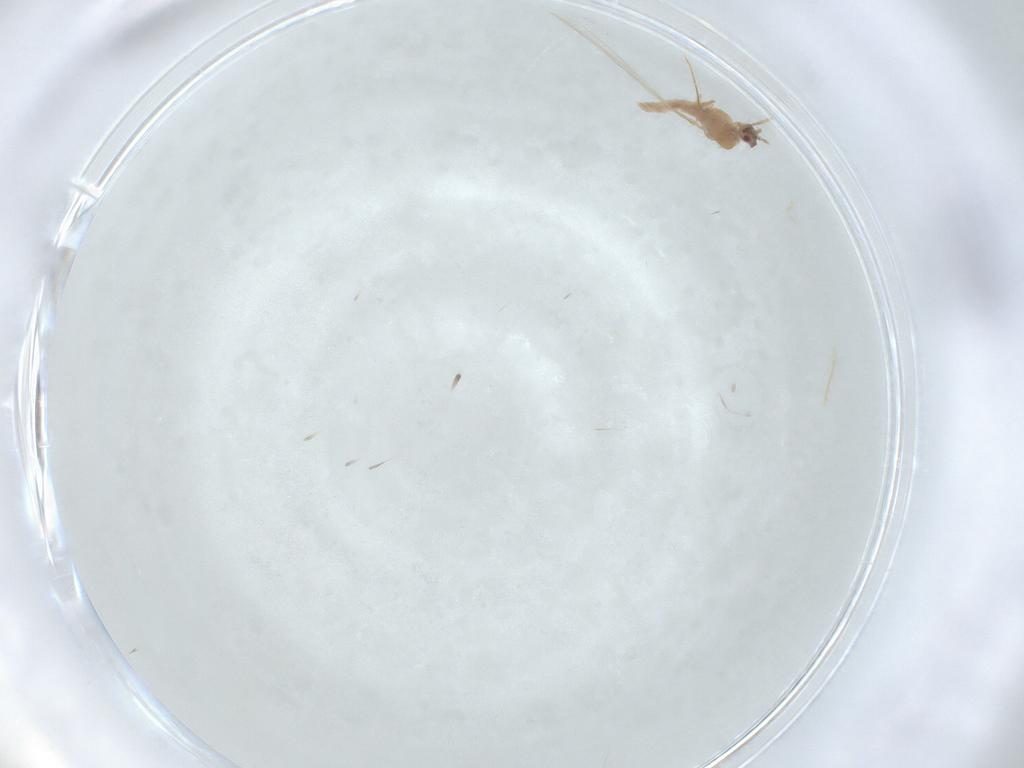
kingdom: Animalia
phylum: Arthropoda
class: Insecta
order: Hemiptera
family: Pseudococcidae
